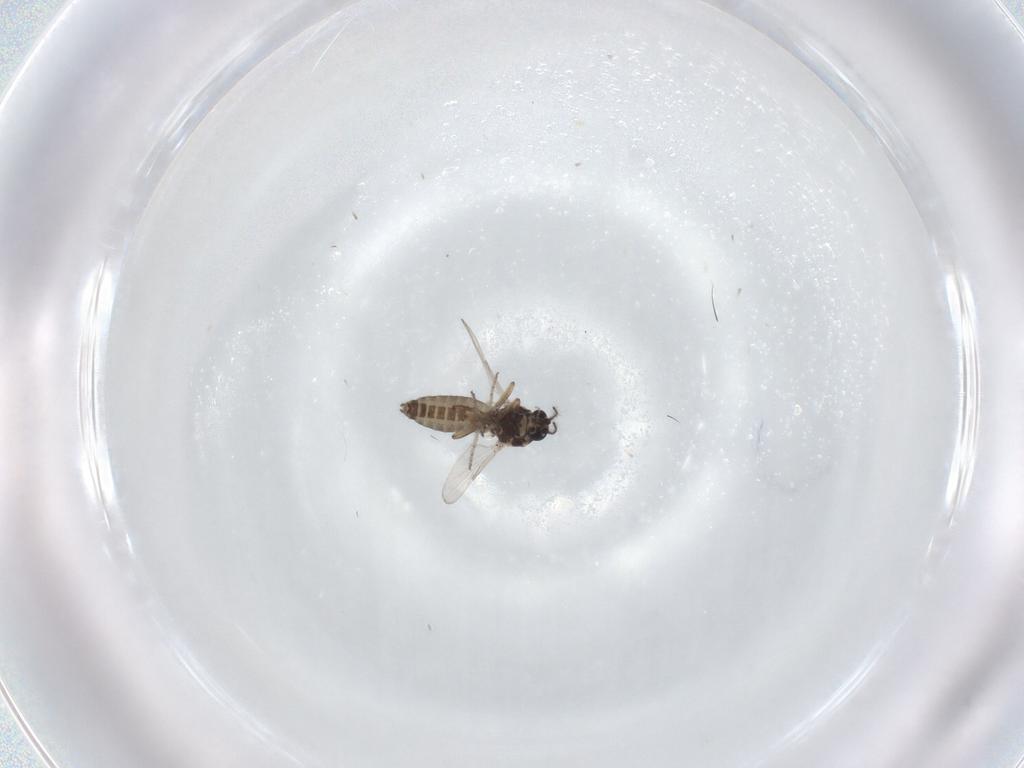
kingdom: Animalia
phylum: Arthropoda
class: Insecta
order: Diptera
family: Ceratopogonidae
